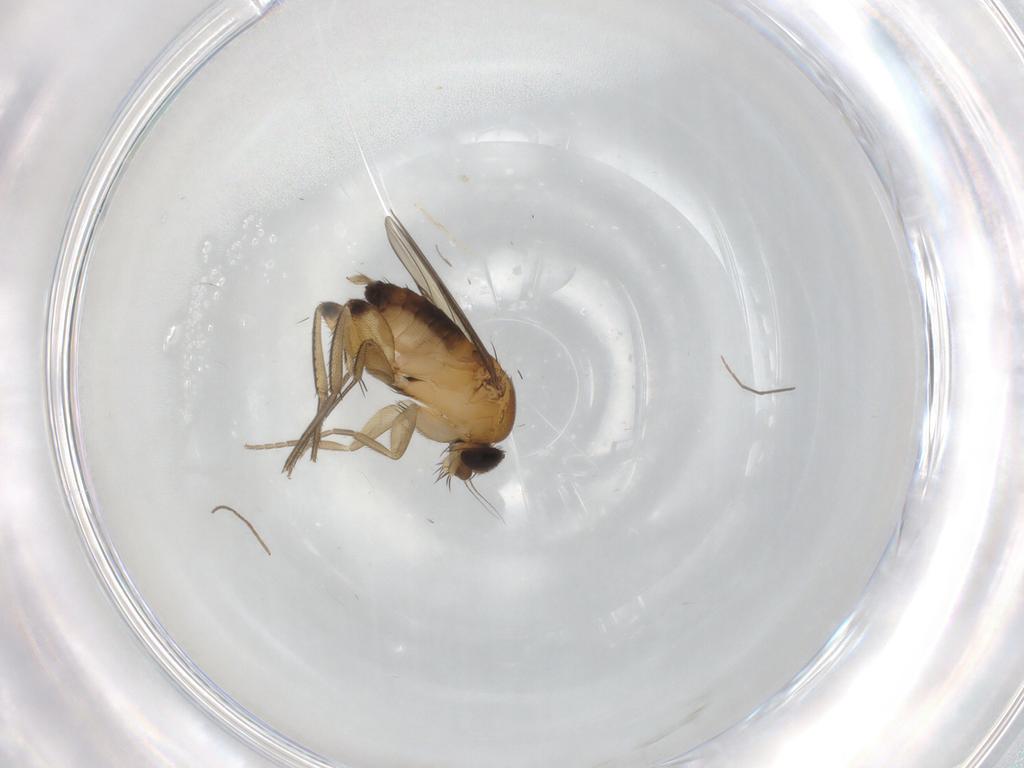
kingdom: Animalia
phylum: Arthropoda
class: Insecta
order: Diptera
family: Phoridae
